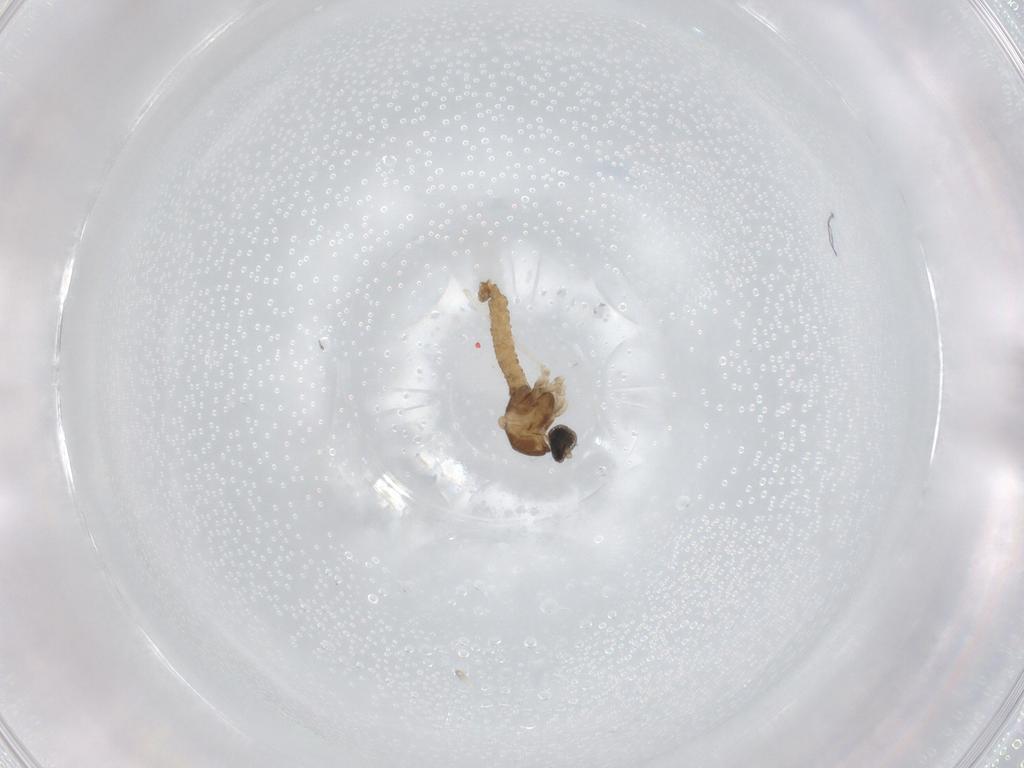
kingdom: Animalia
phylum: Arthropoda
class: Insecta
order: Diptera
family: Cecidomyiidae
